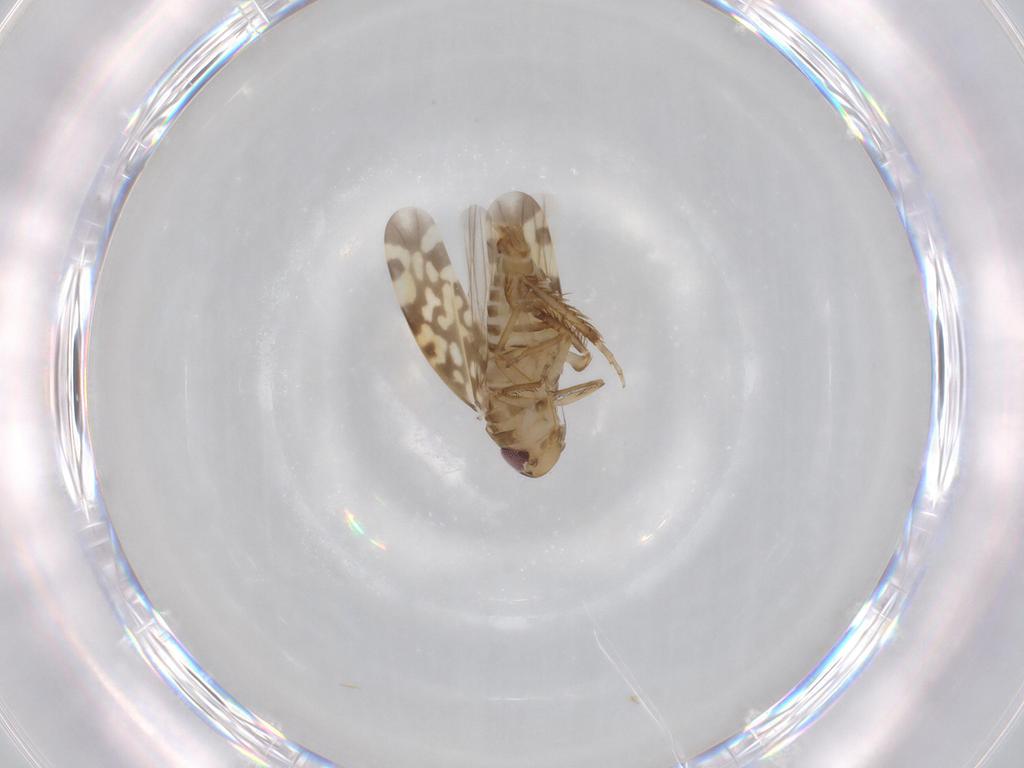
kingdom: Animalia
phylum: Arthropoda
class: Insecta
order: Hemiptera
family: Cicadellidae
